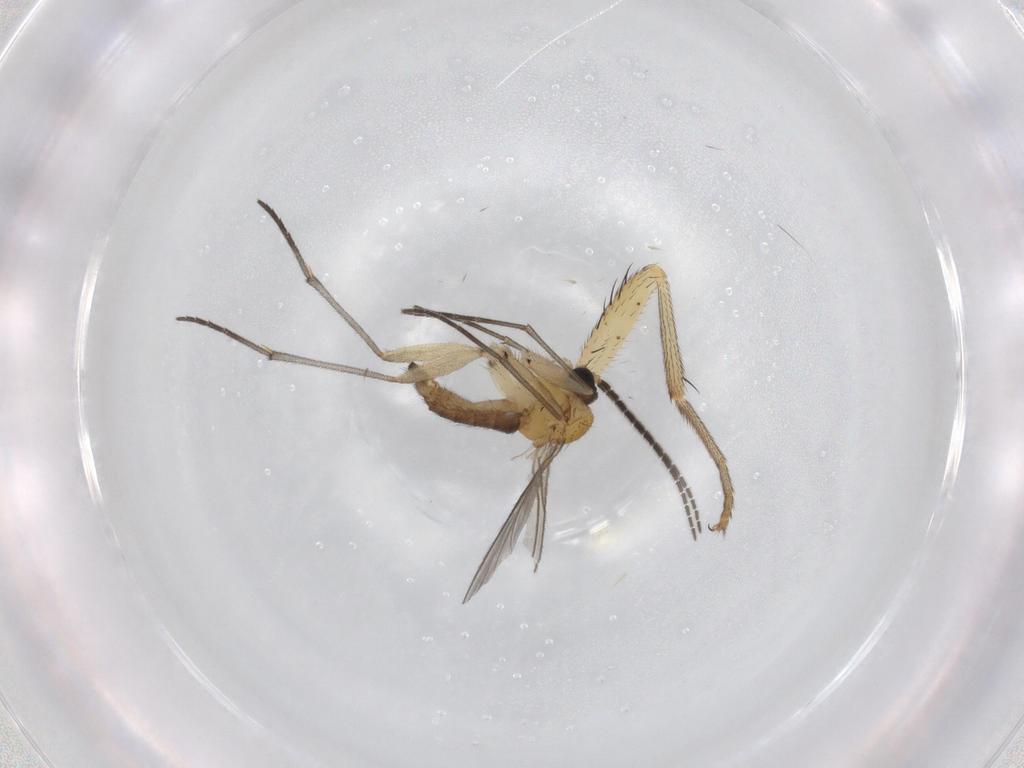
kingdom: Animalia
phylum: Arthropoda
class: Insecta
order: Diptera
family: Sciaridae
